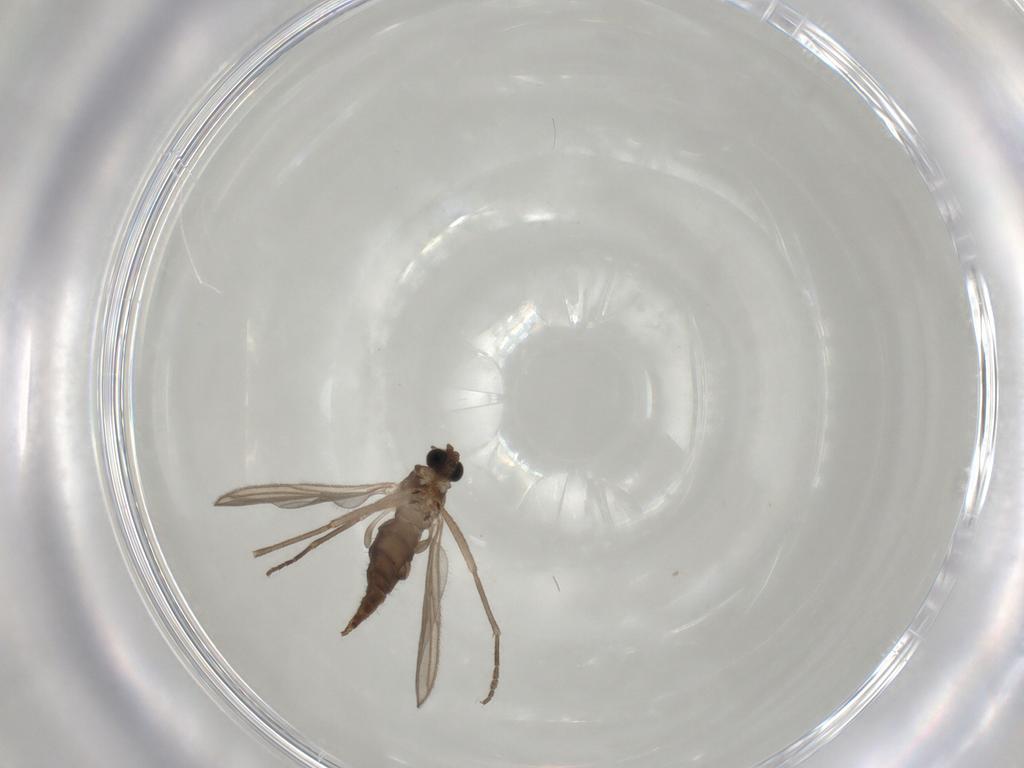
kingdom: Animalia
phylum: Arthropoda
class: Insecta
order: Diptera
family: Sciaridae
